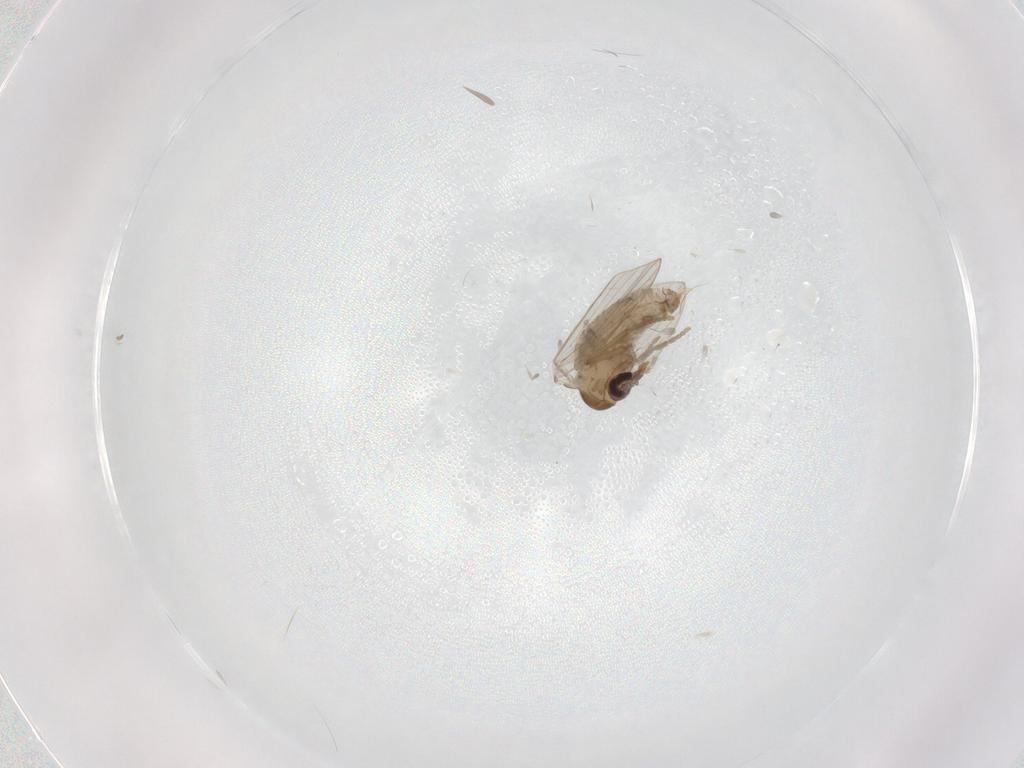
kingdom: Animalia
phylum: Arthropoda
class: Insecta
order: Diptera
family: Psychodidae
